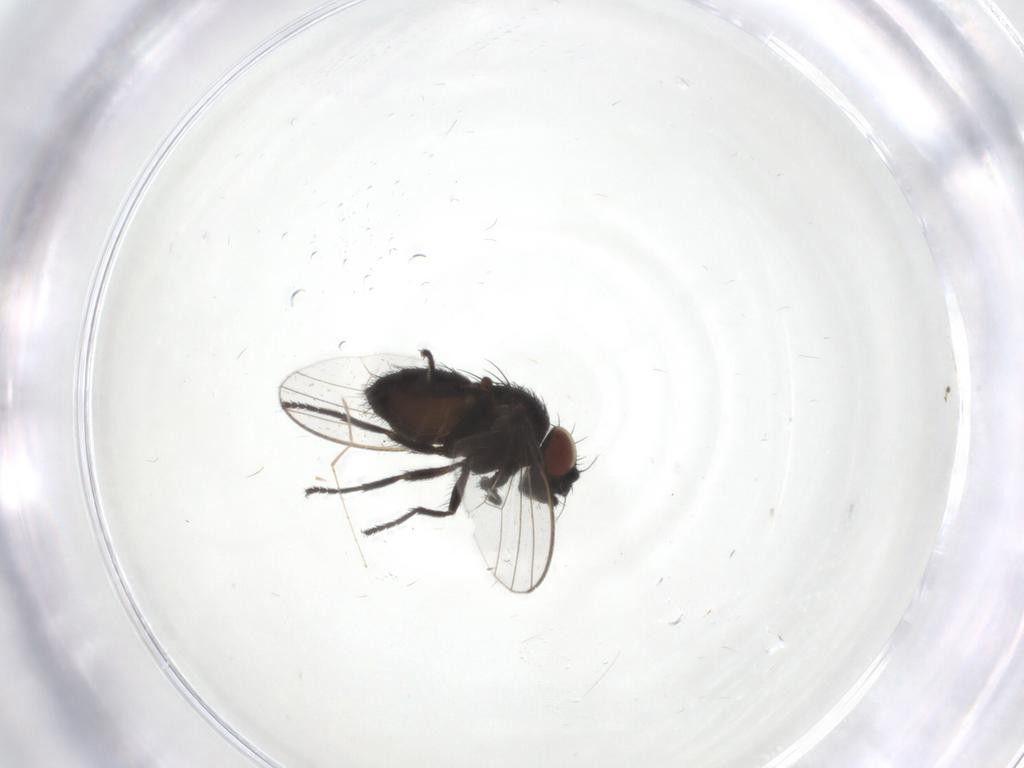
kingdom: Animalia
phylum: Arthropoda
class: Insecta
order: Diptera
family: Milichiidae
